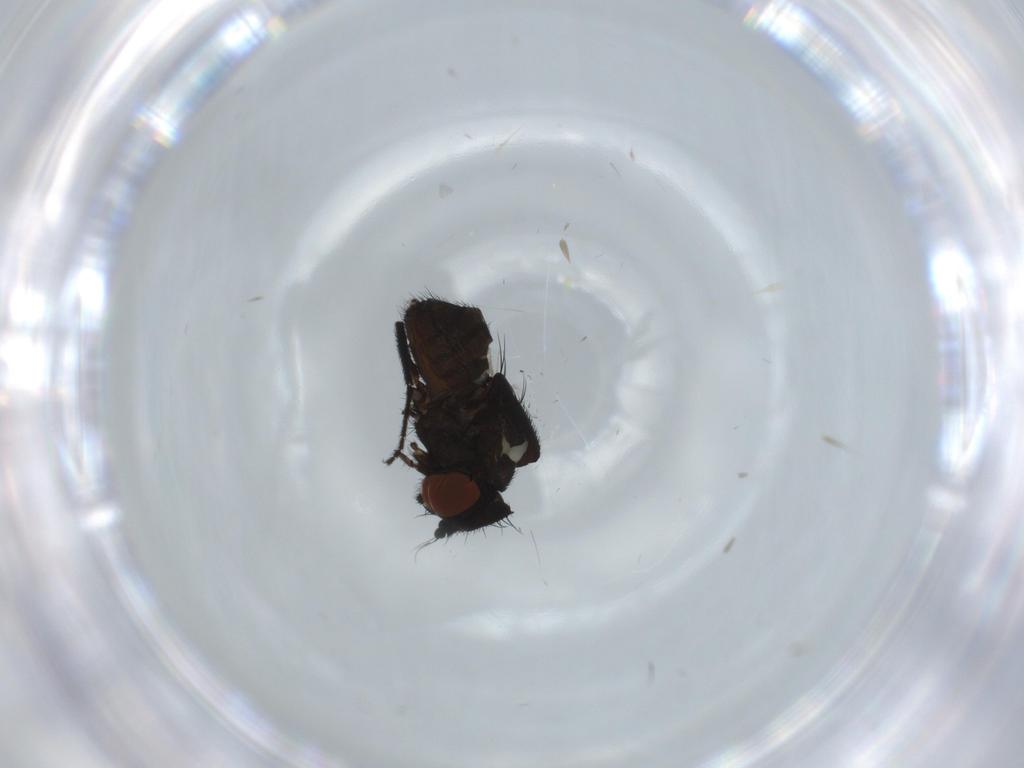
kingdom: Animalia
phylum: Arthropoda
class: Insecta
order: Diptera
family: Milichiidae
